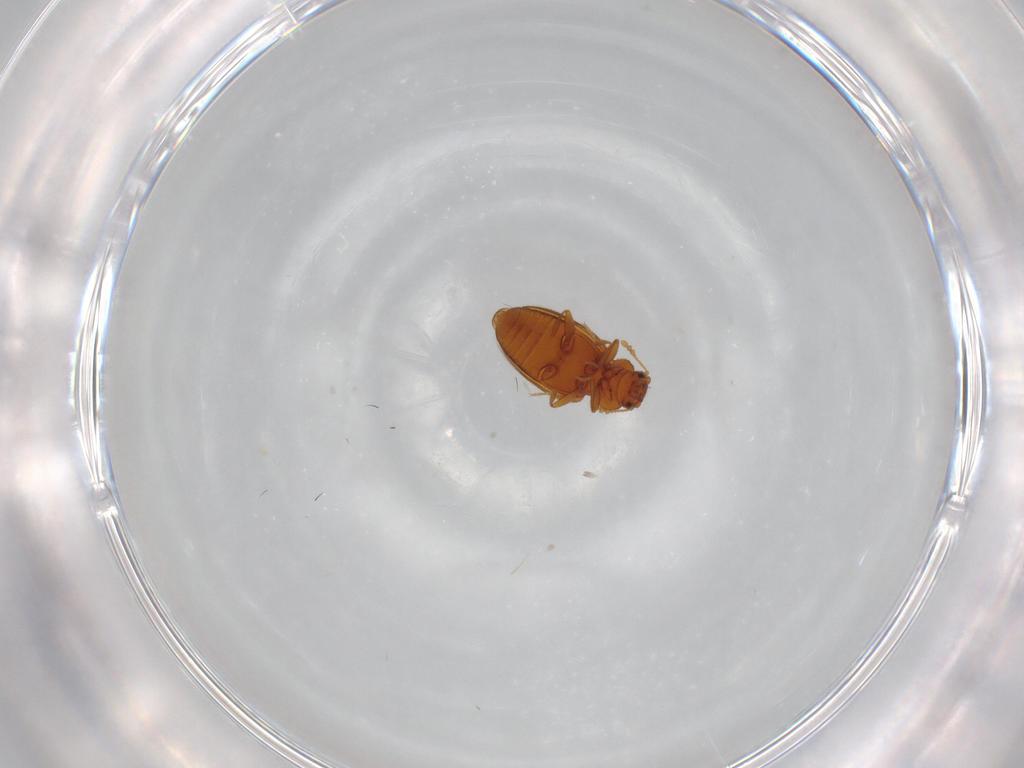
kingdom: Animalia
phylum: Arthropoda
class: Insecta
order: Coleoptera
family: Latridiidae
